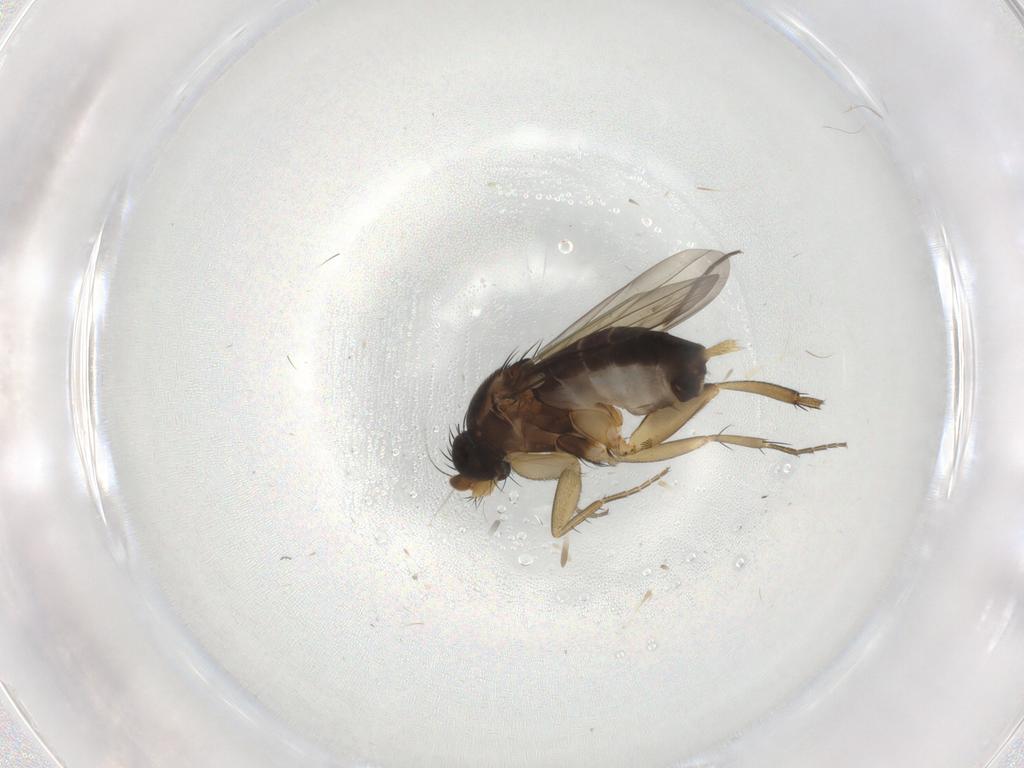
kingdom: Animalia
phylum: Arthropoda
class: Insecta
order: Diptera
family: Phoridae
